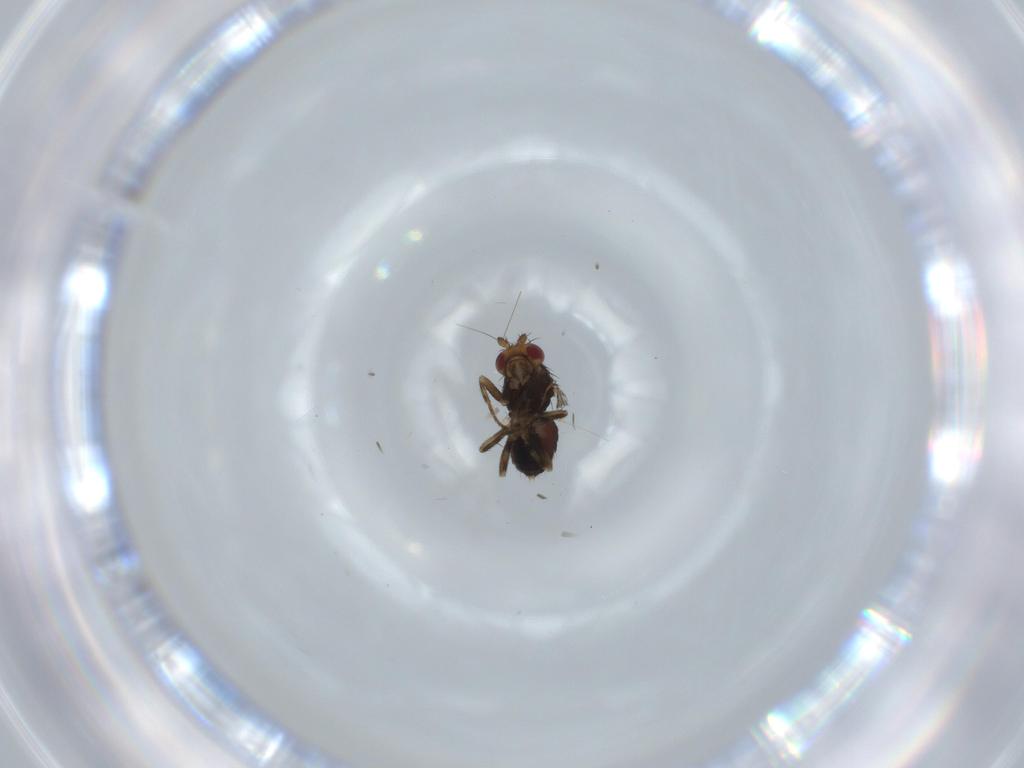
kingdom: Animalia
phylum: Arthropoda
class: Insecta
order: Diptera
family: Sphaeroceridae
